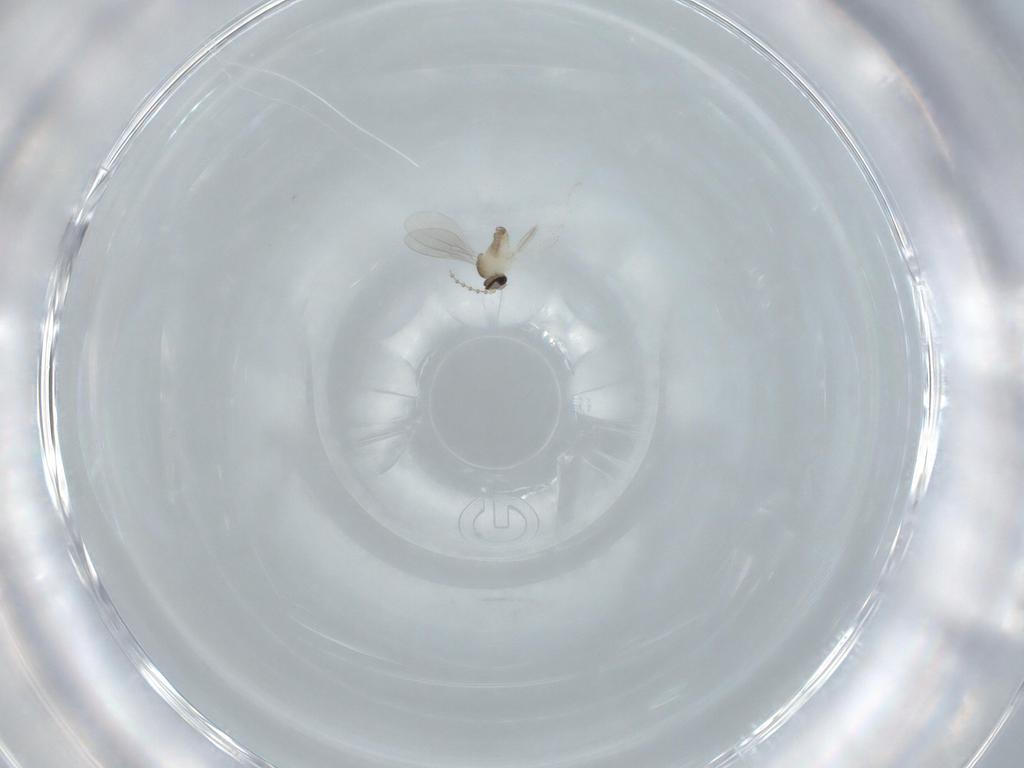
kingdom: Animalia
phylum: Arthropoda
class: Insecta
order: Diptera
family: Cecidomyiidae
